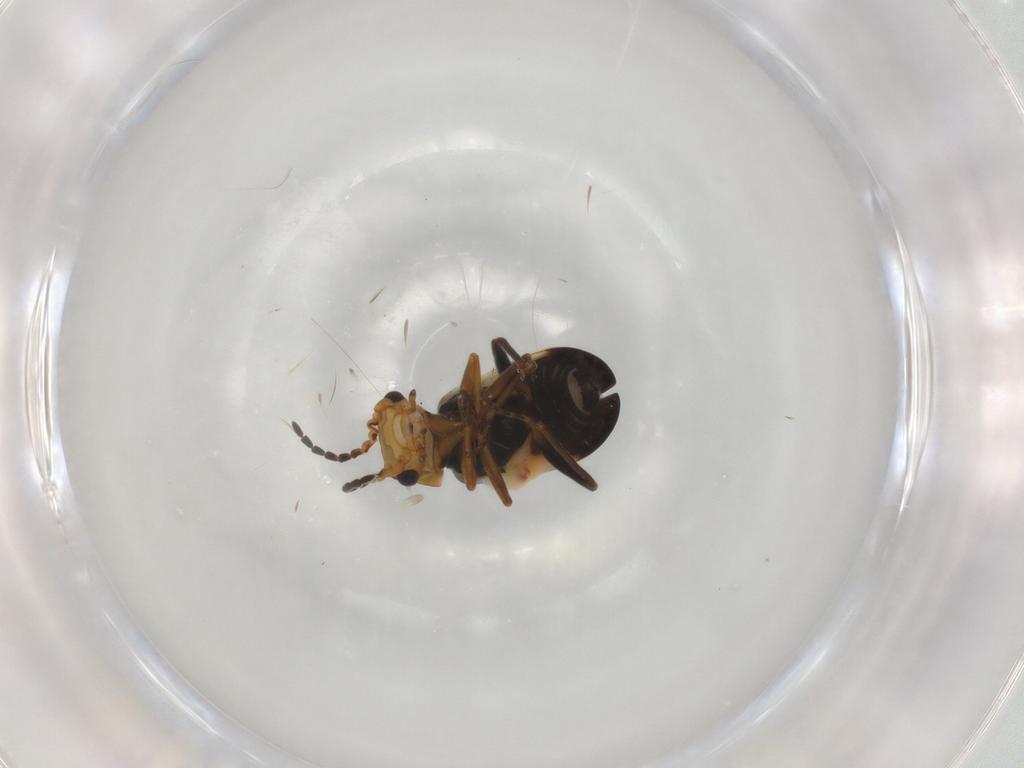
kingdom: Animalia
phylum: Arthropoda
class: Insecta
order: Coleoptera
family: Melyridae
